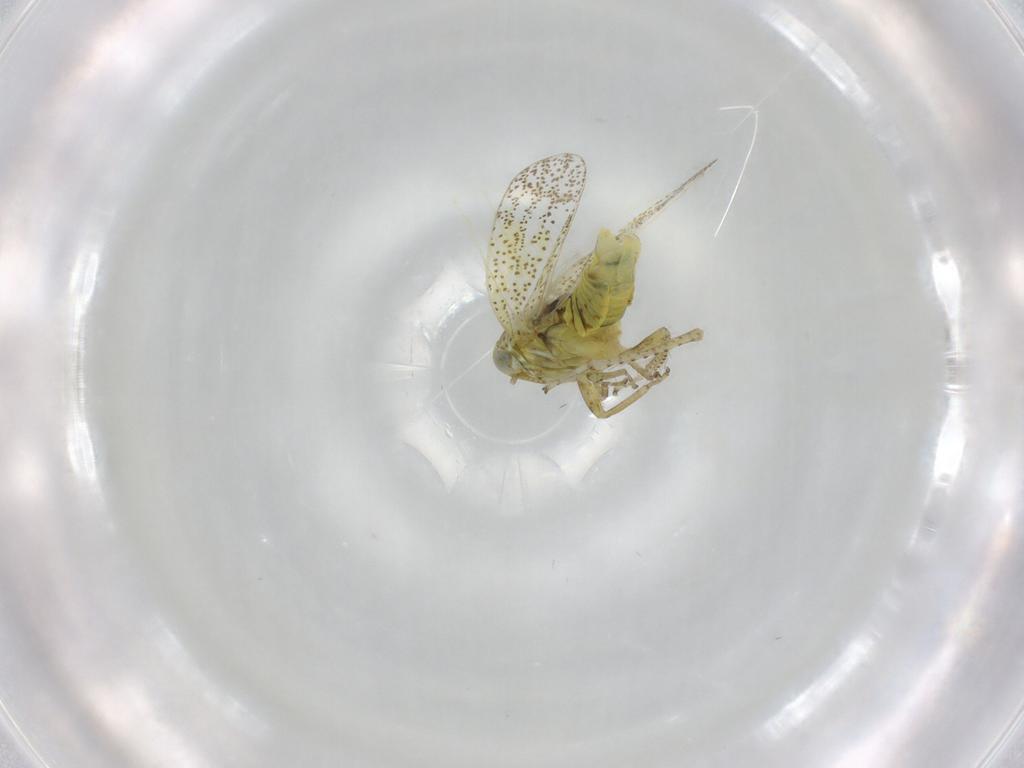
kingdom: Animalia
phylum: Arthropoda
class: Insecta
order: Hemiptera
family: Cicadellidae
